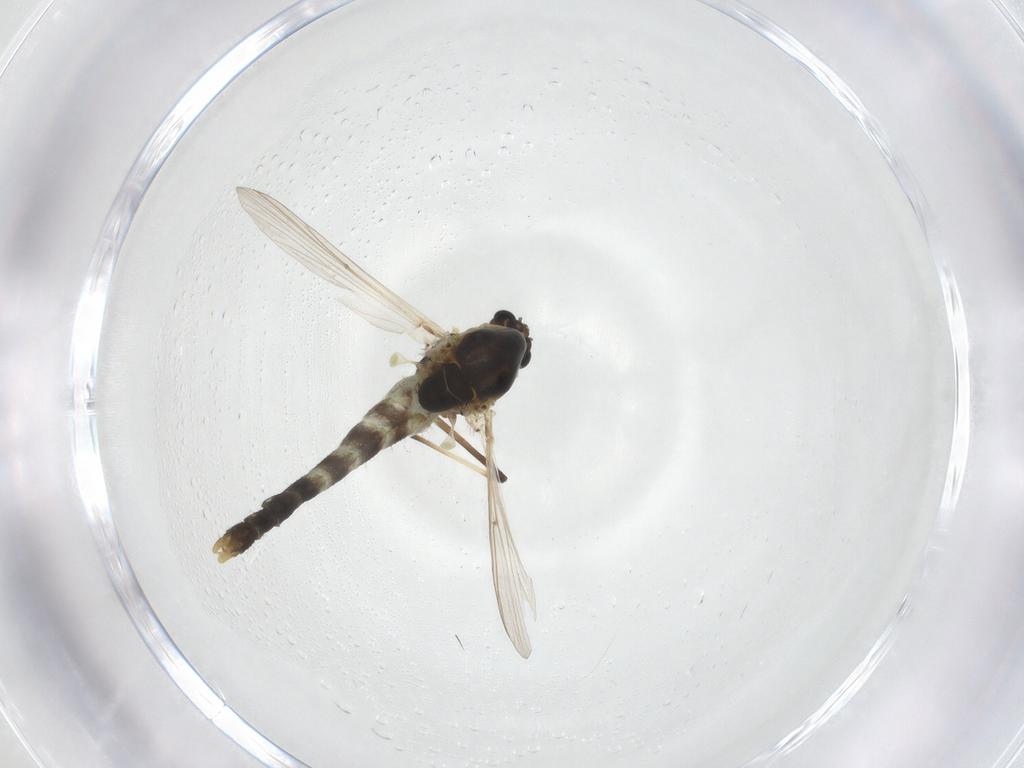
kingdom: Animalia
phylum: Arthropoda
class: Insecta
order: Diptera
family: Chironomidae
